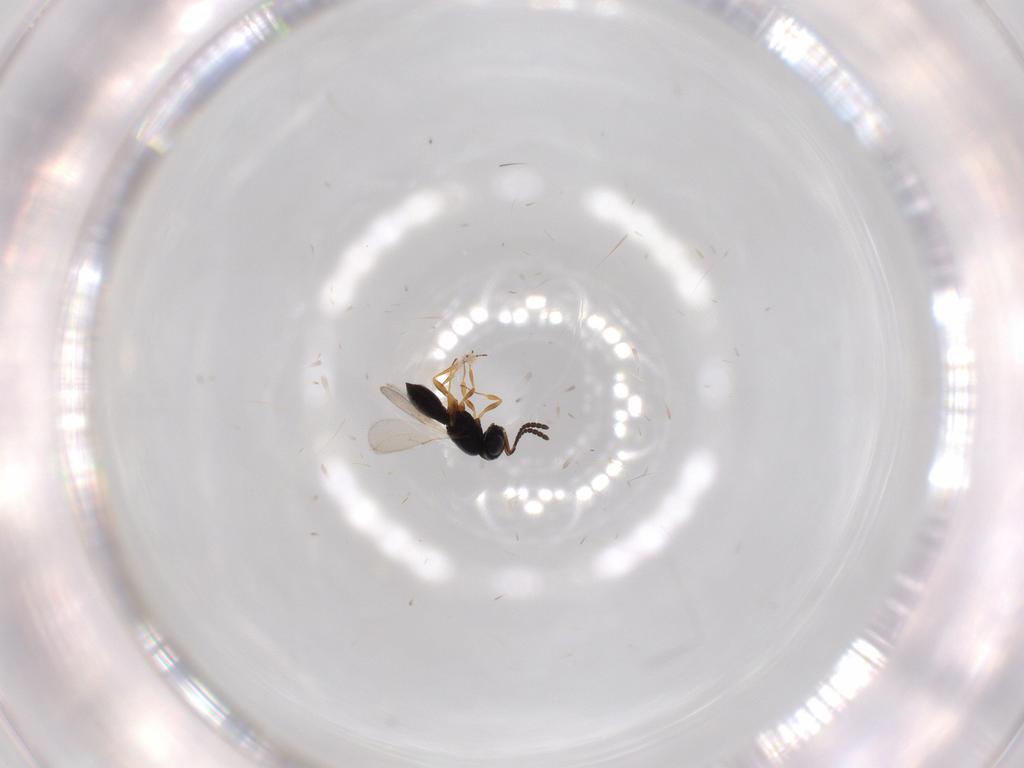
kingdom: Animalia
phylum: Arthropoda
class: Insecta
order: Hymenoptera
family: Scelionidae
